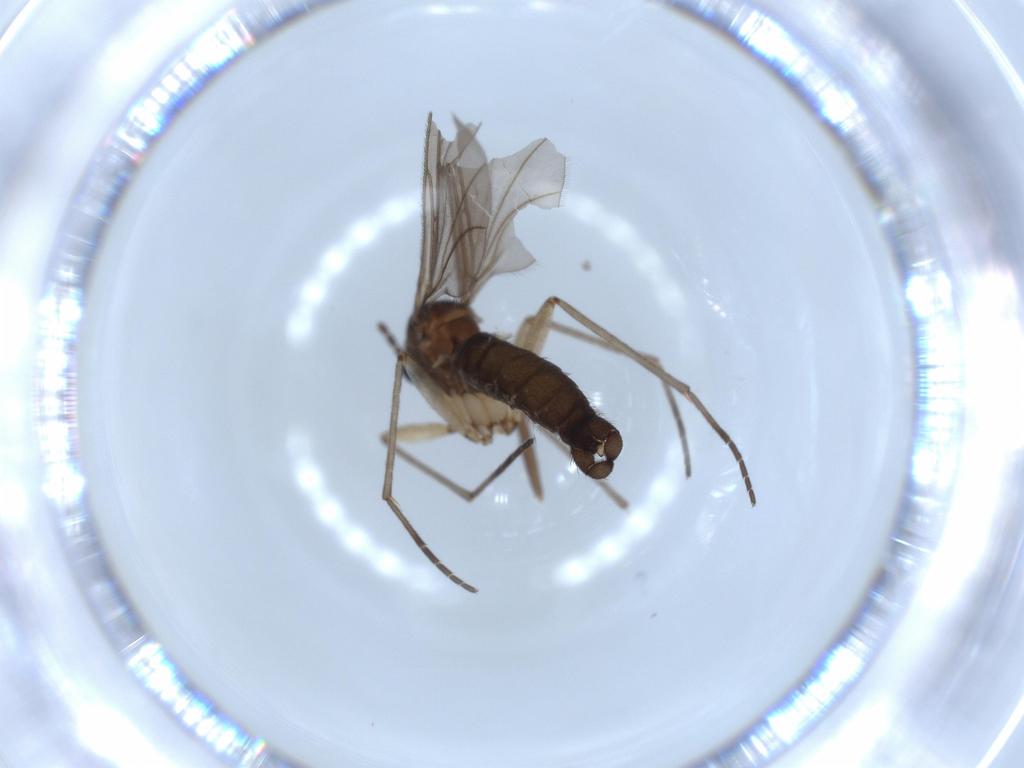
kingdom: Animalia
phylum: Arthropoda
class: Insecta
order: Diptera
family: Sciaridae
